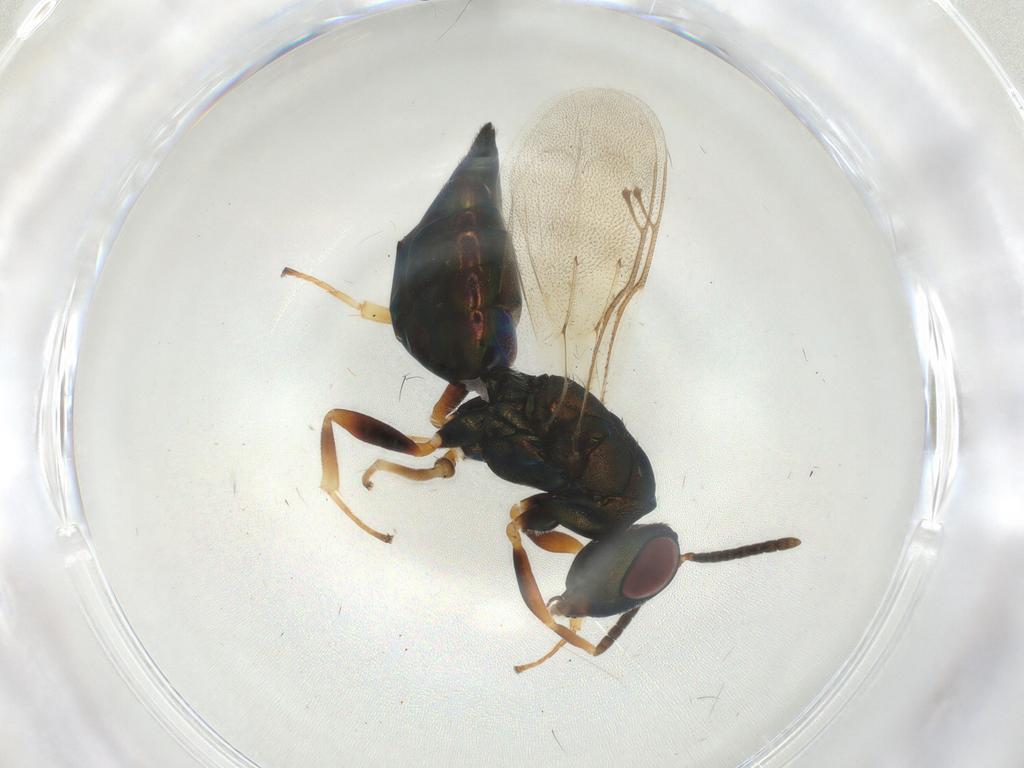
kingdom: Animalia
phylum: Arthropoda
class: Insecta
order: Hymenoptera
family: Pteromalidae
